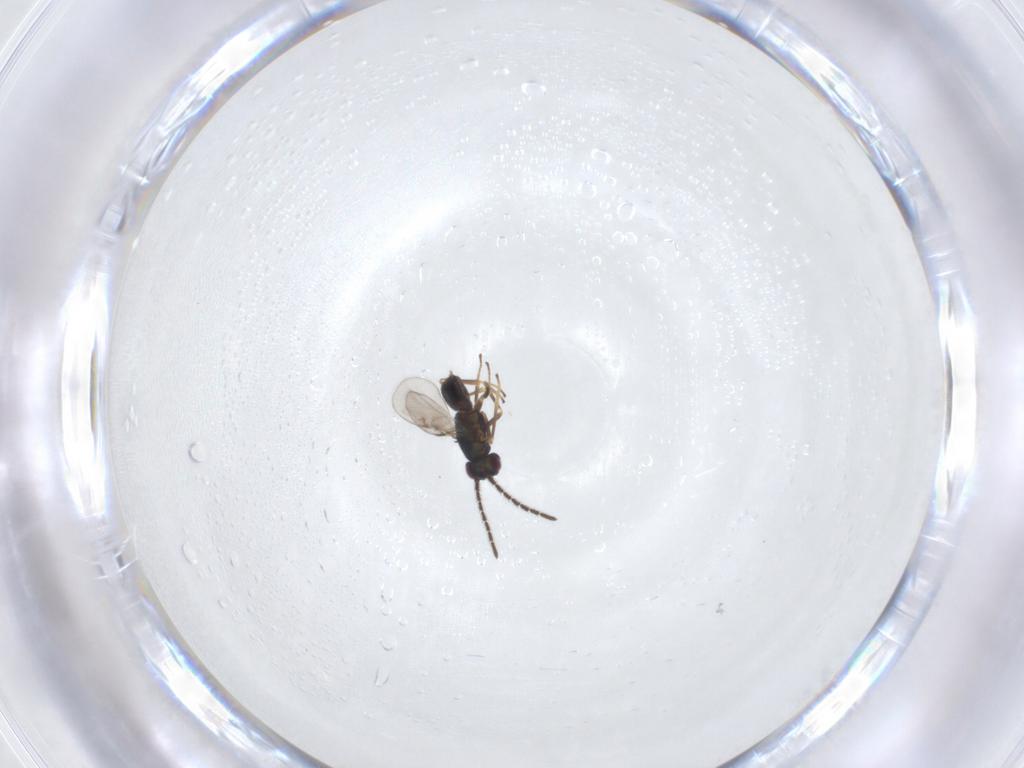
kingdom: Animalia
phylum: Arthropoda
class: Insecta
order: Hymenoptera
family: Encyrtidae
